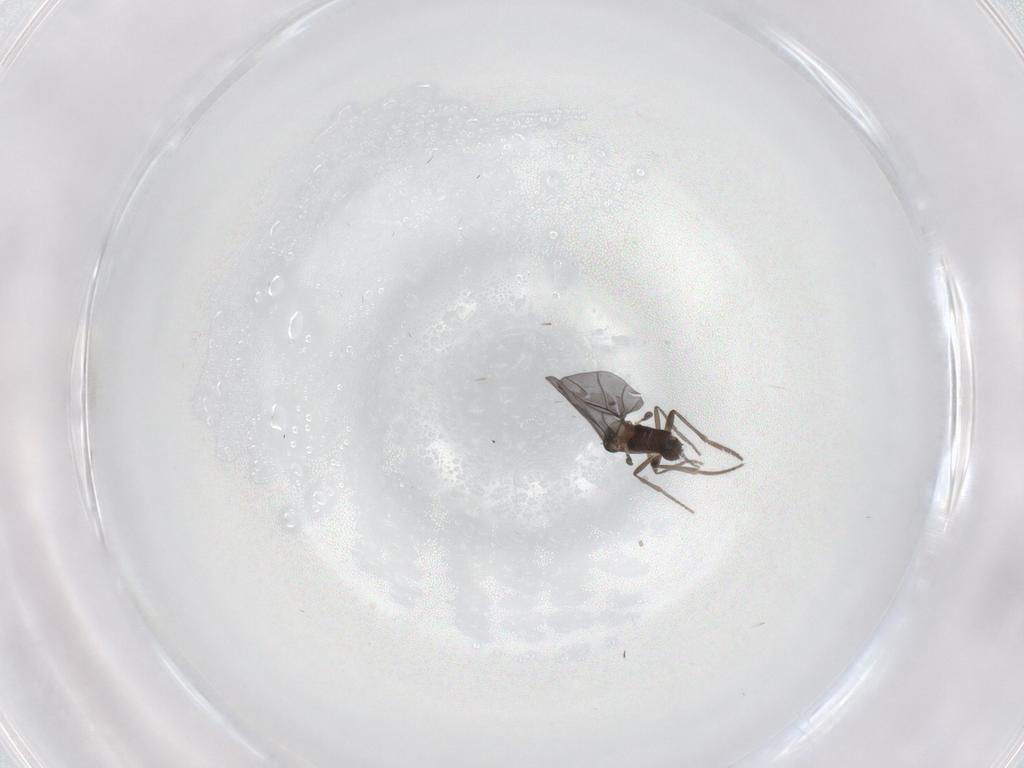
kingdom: Animalia
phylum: Arthropoda
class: Insecta
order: Diptera
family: Phoridae
